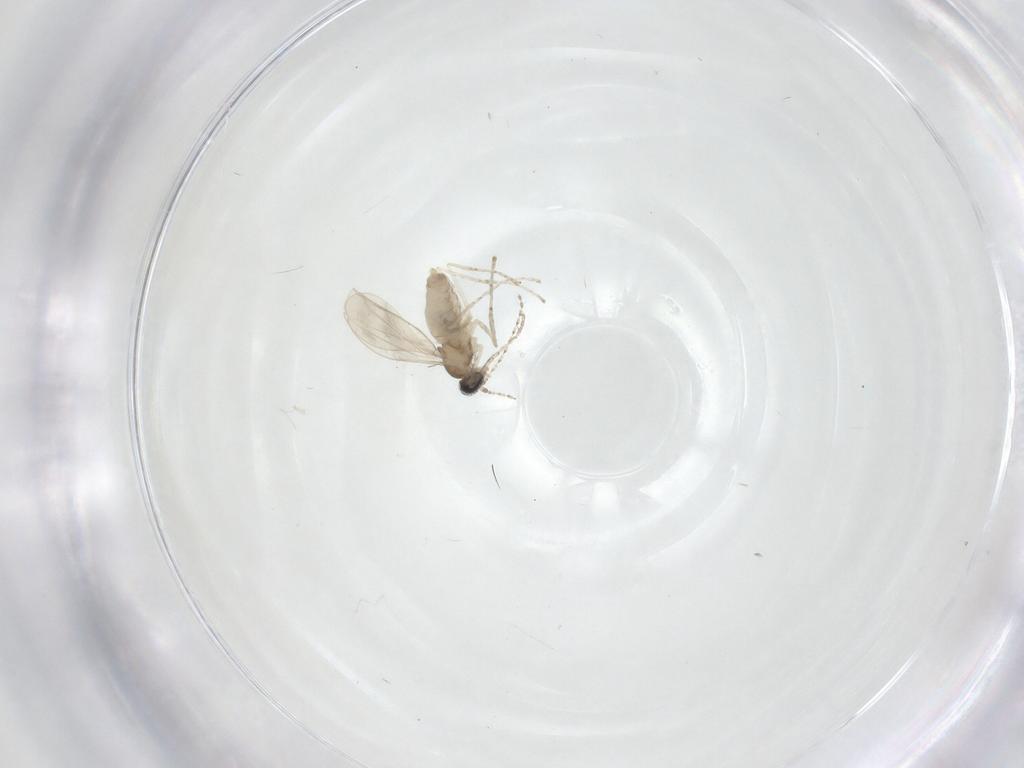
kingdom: Animalia
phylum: Arthropoda
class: Insecta
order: Diptera
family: Cecidomyiidae
